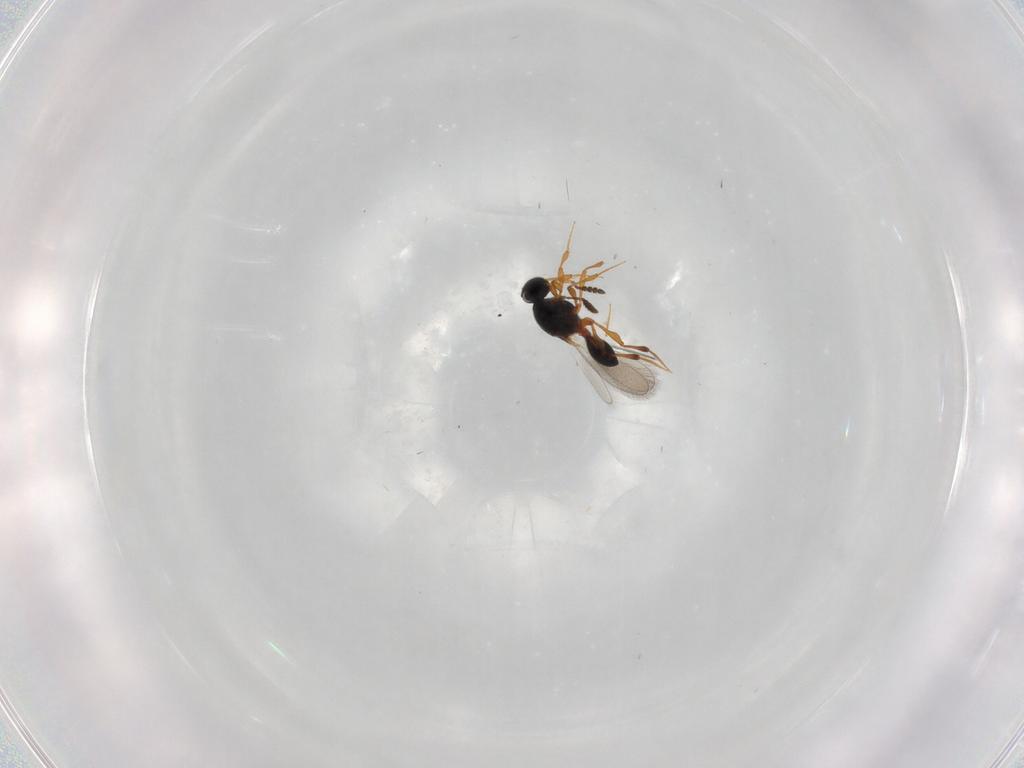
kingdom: Animalia
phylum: Arthropoda
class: Insecta
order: Hymenoptera
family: Platygastridae
